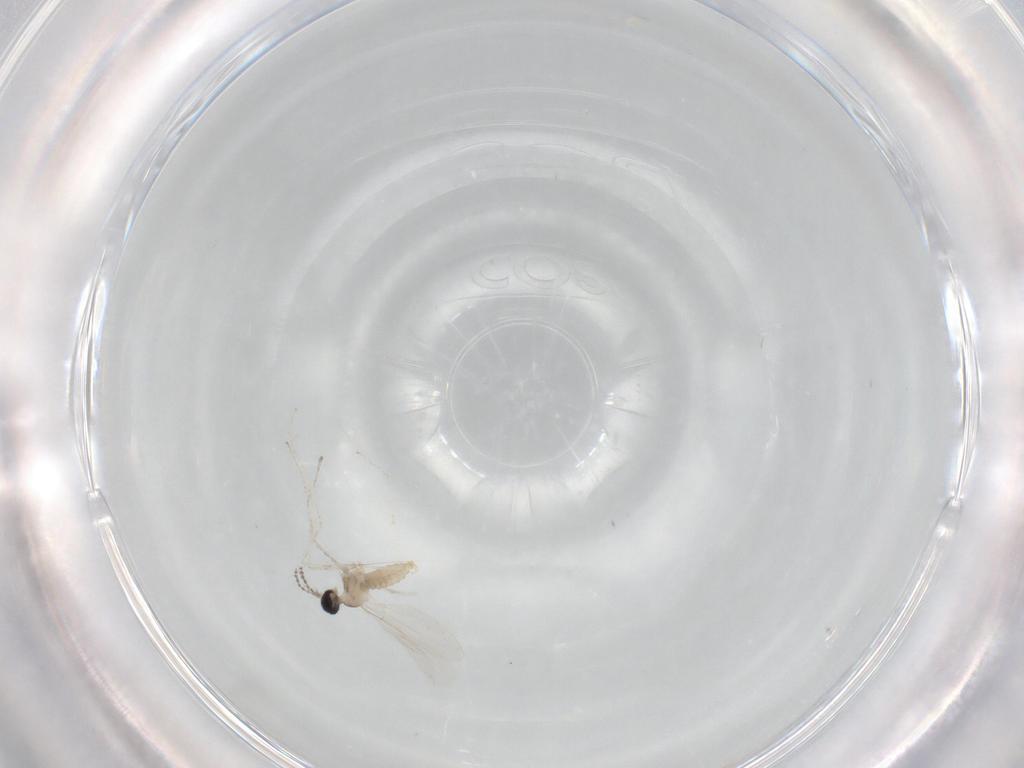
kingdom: Animalia
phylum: Arthropoda
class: Insecta
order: Diptera
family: Cecidomyiidae
